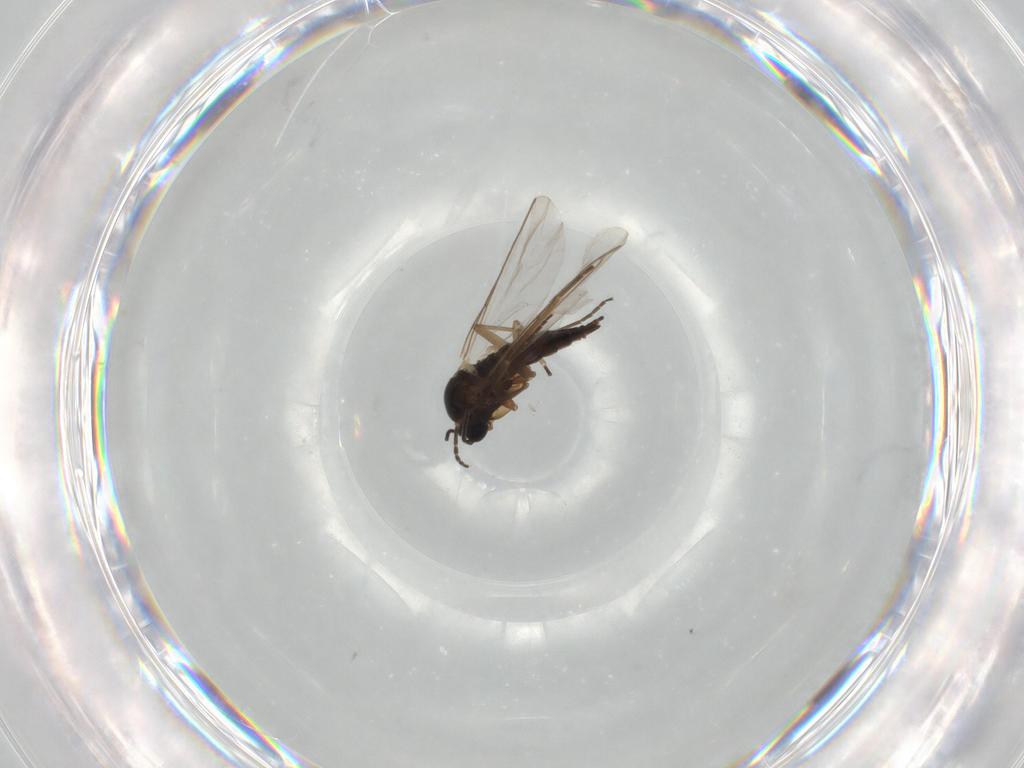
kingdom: Animalia
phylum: Arthropoda
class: Insecta
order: Diptera
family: Sciaridae
